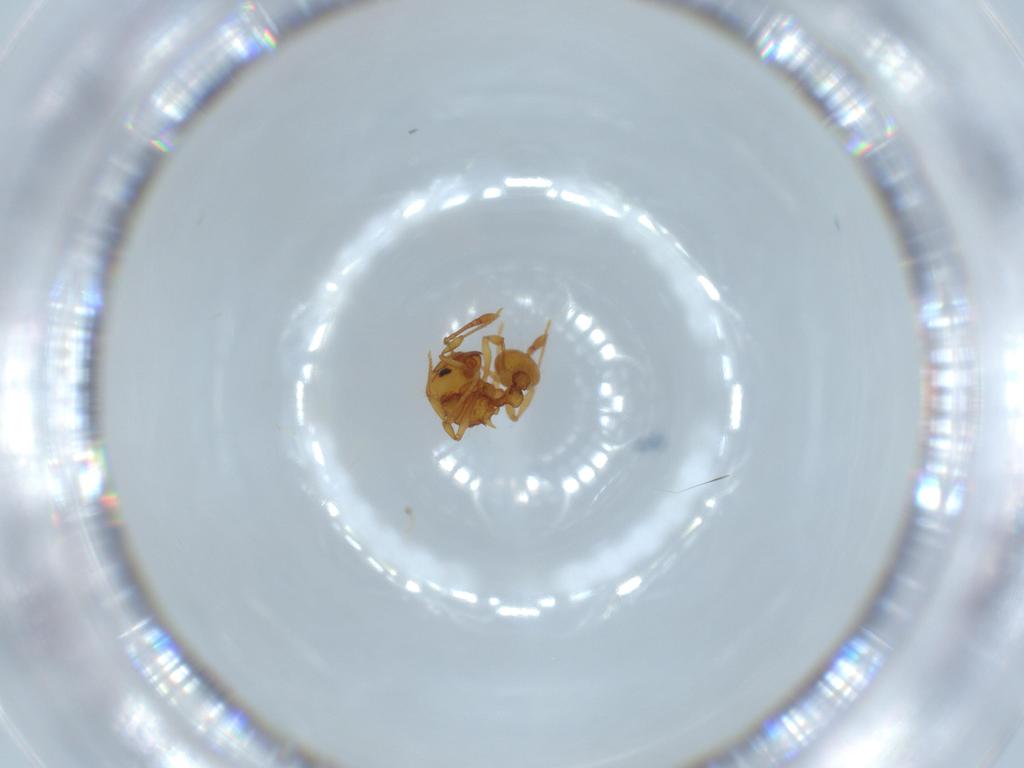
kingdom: Animalia
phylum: Arthropoda
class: Insecta
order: Hymenoptera
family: Formicidae
